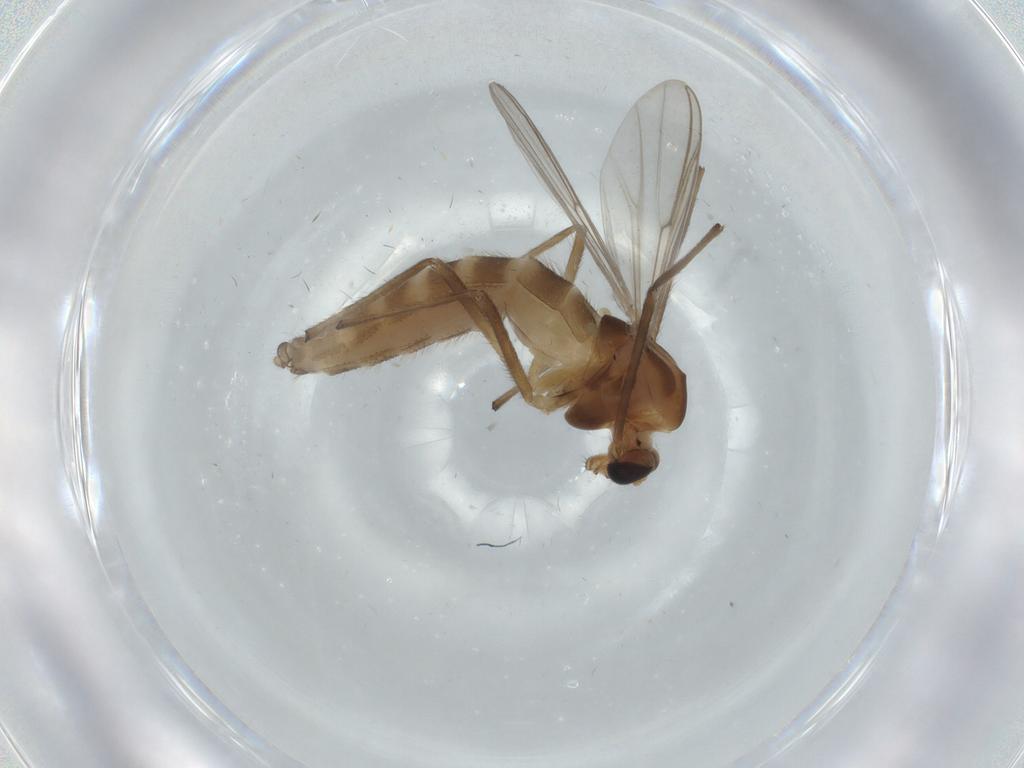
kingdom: Animalia
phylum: Arthropoda
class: Insecta
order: Diptera
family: Chironomidae
